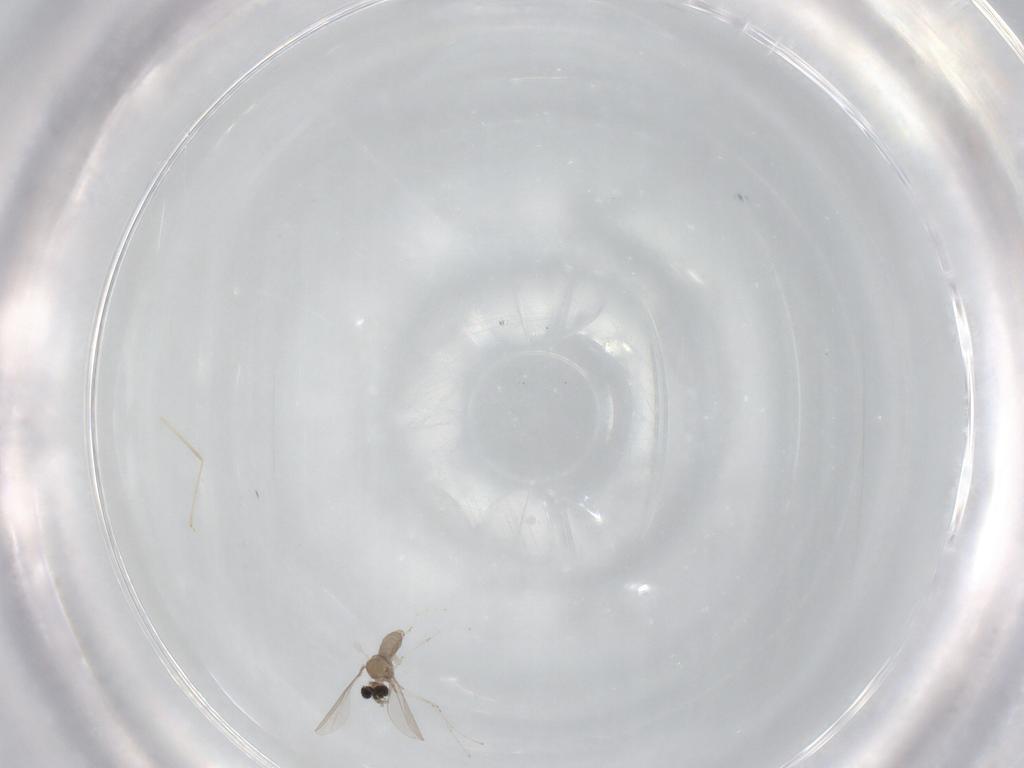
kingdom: Animalia
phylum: Arthropoda
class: Insecta
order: Diptera
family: Cecidomyiidae
